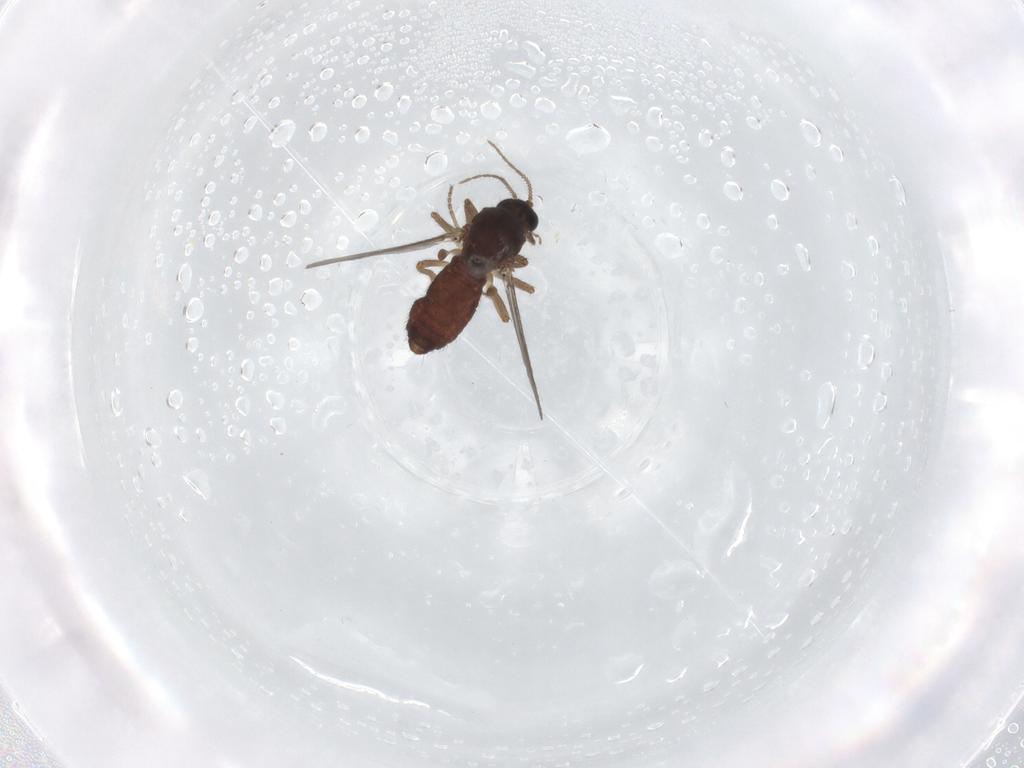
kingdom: Animalia
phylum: Arthropoda
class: Insecta
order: Diptera
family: Ceratopogonidae
